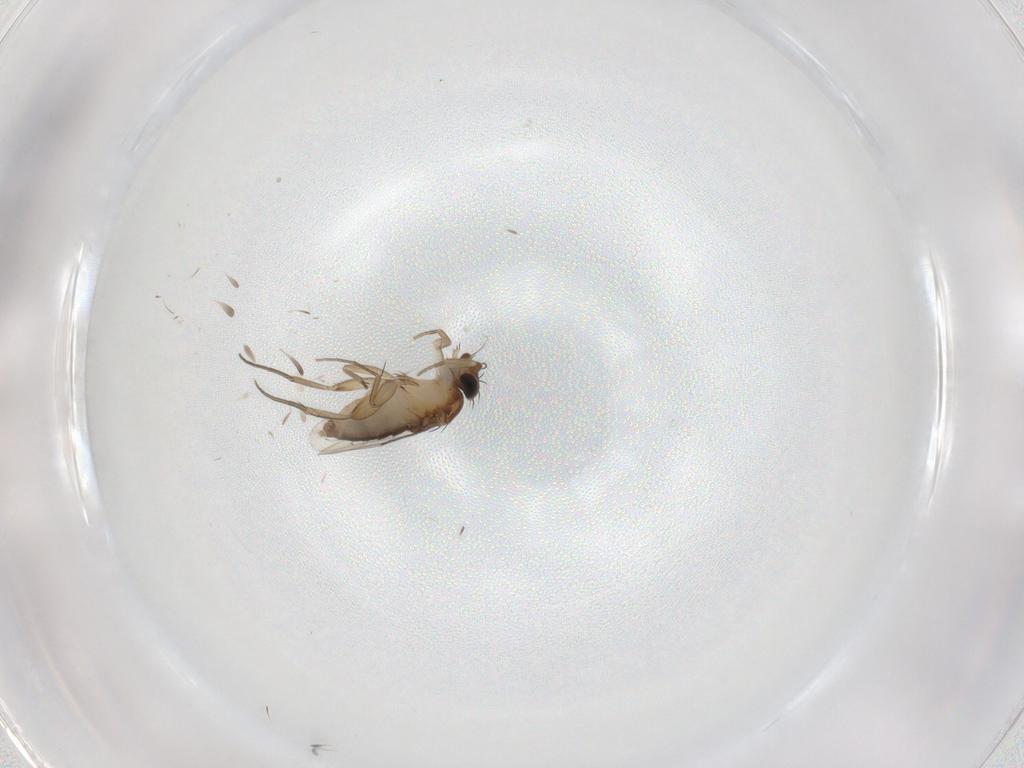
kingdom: Animalia
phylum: Arthropoda
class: Insecta
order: Diptera
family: Phoridae
